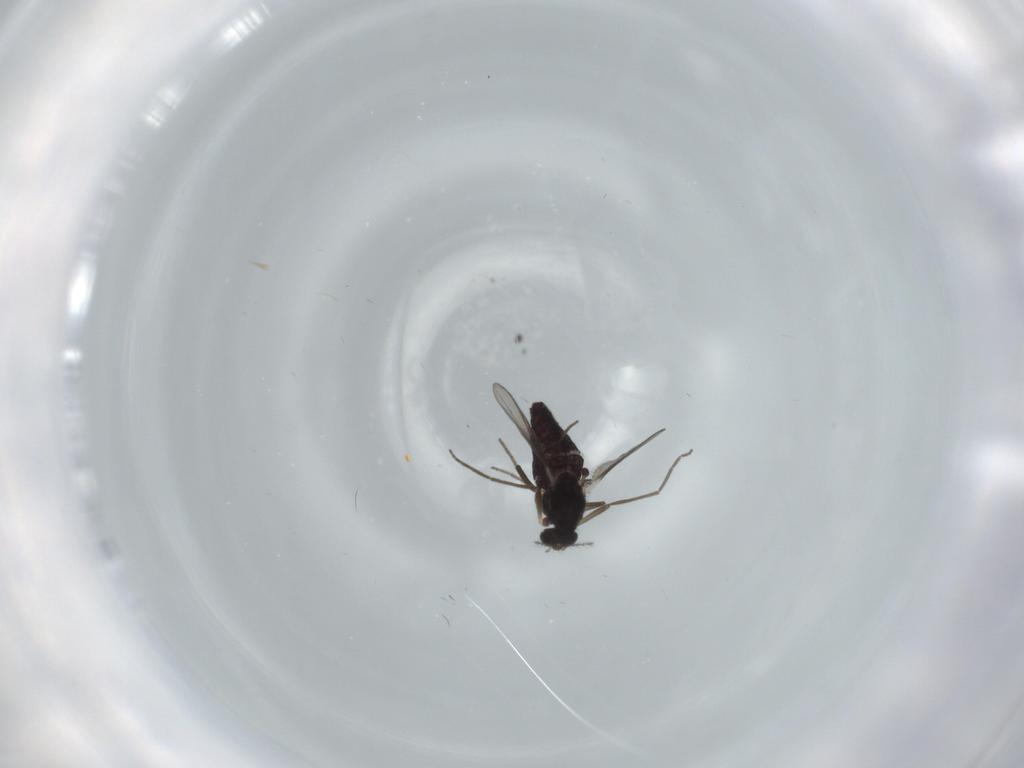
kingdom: Animalia
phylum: Arthropoda
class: Insecta
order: Diptera
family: Chironomidae
